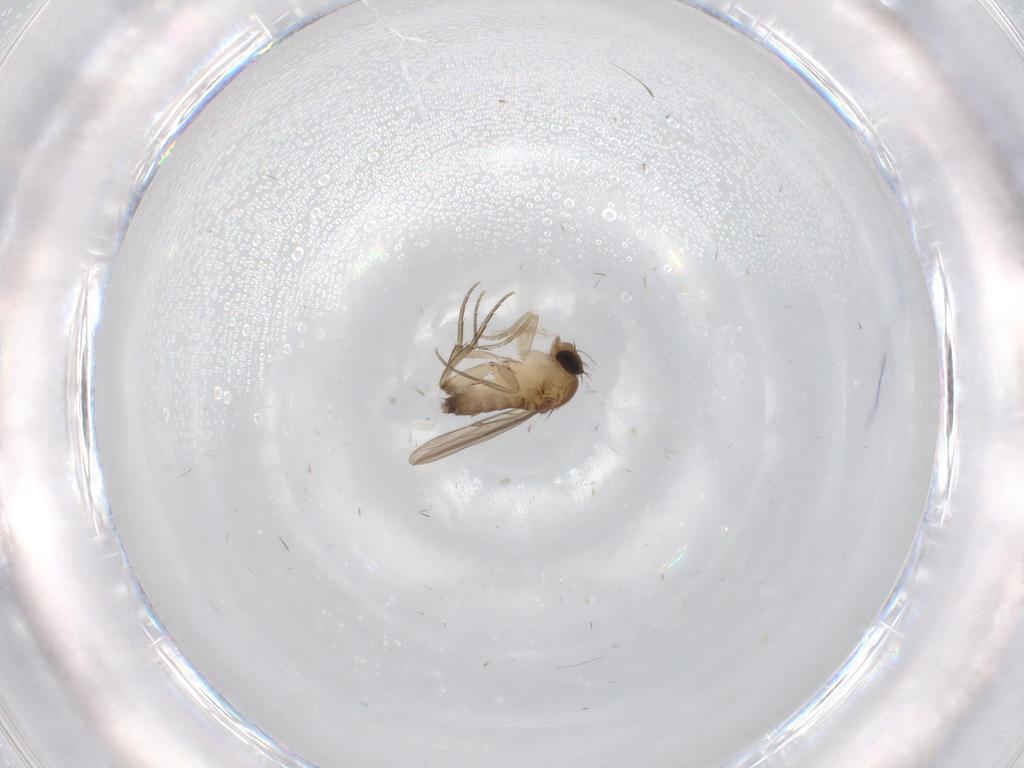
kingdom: Animalia
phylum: Arthropoda
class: Insecta
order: Diptera
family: Phoridae
